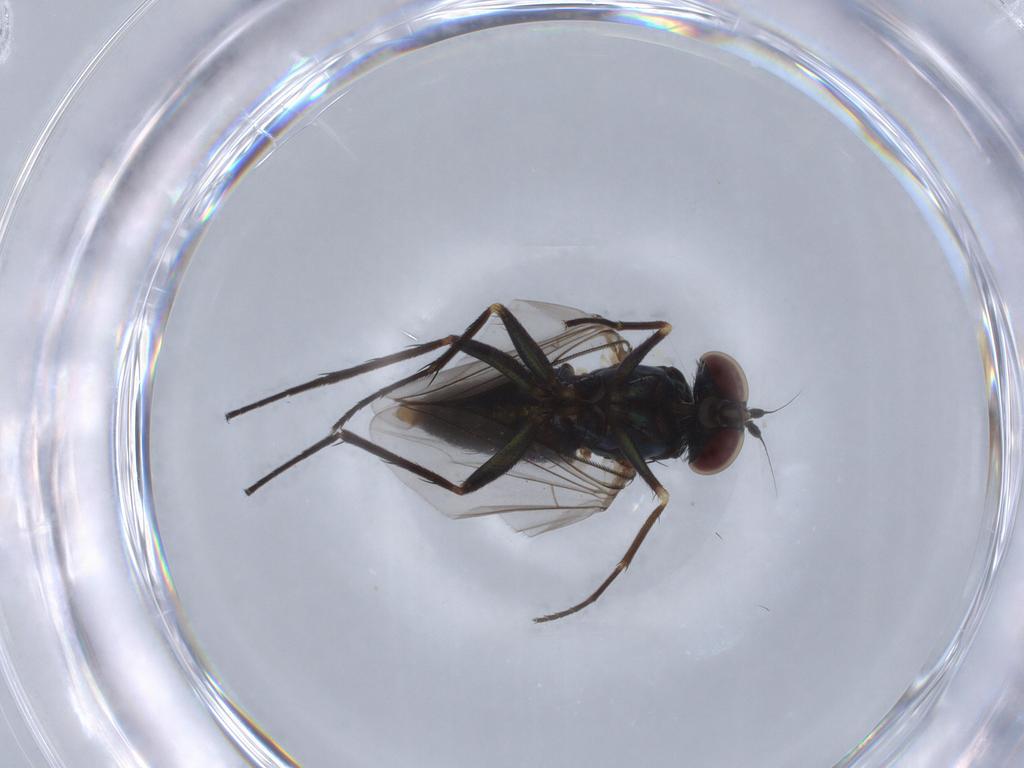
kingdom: Animalia
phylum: Arthropoda
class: Insecta
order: Diptera
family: Dolichopodidae
